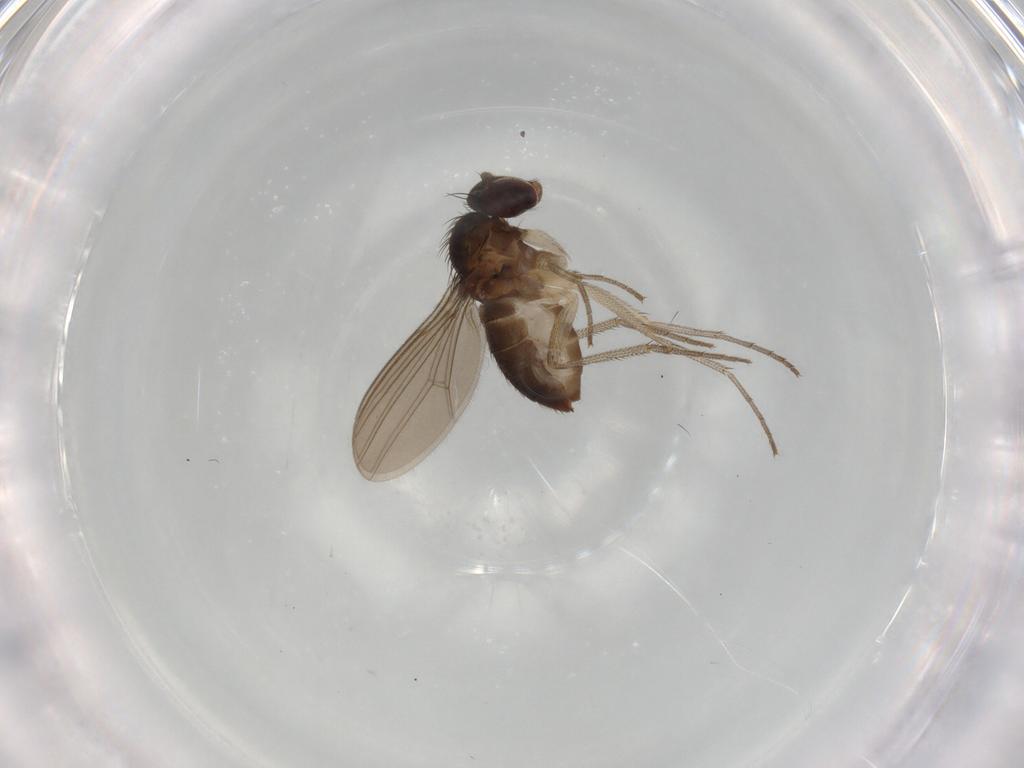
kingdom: Animalia
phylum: Arthropoda
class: Insecta
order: Diptera
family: Dolichopodidae
